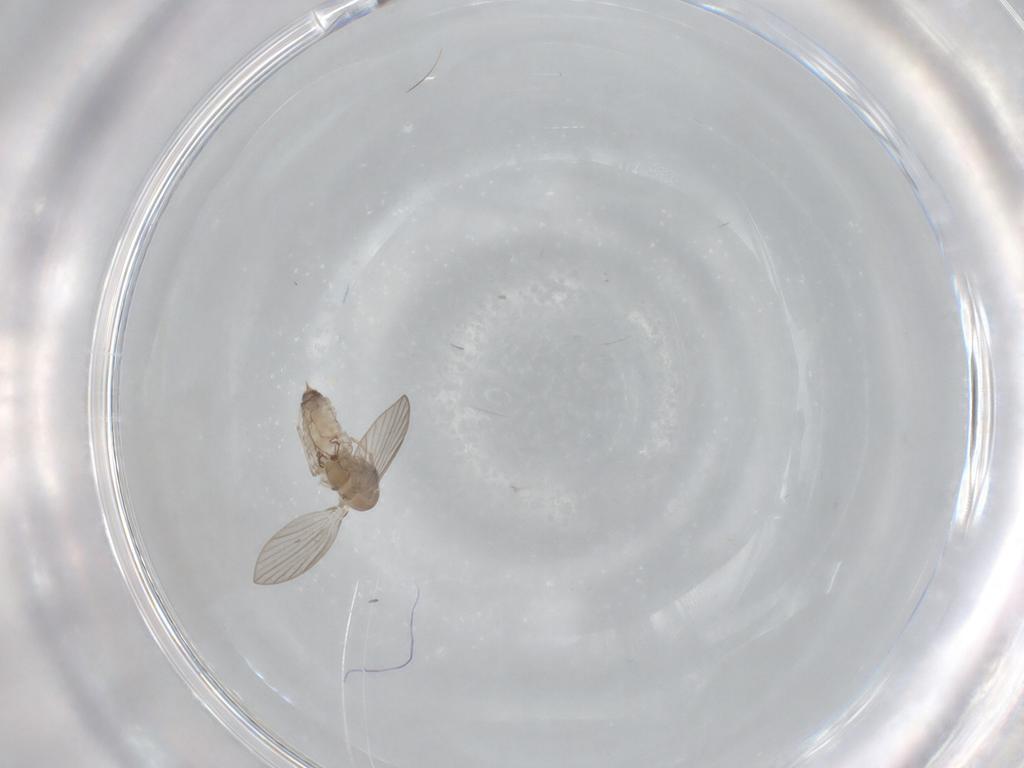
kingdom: Animalia
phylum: Arthropoda
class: Insecta
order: Diptera
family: Psychodidae
